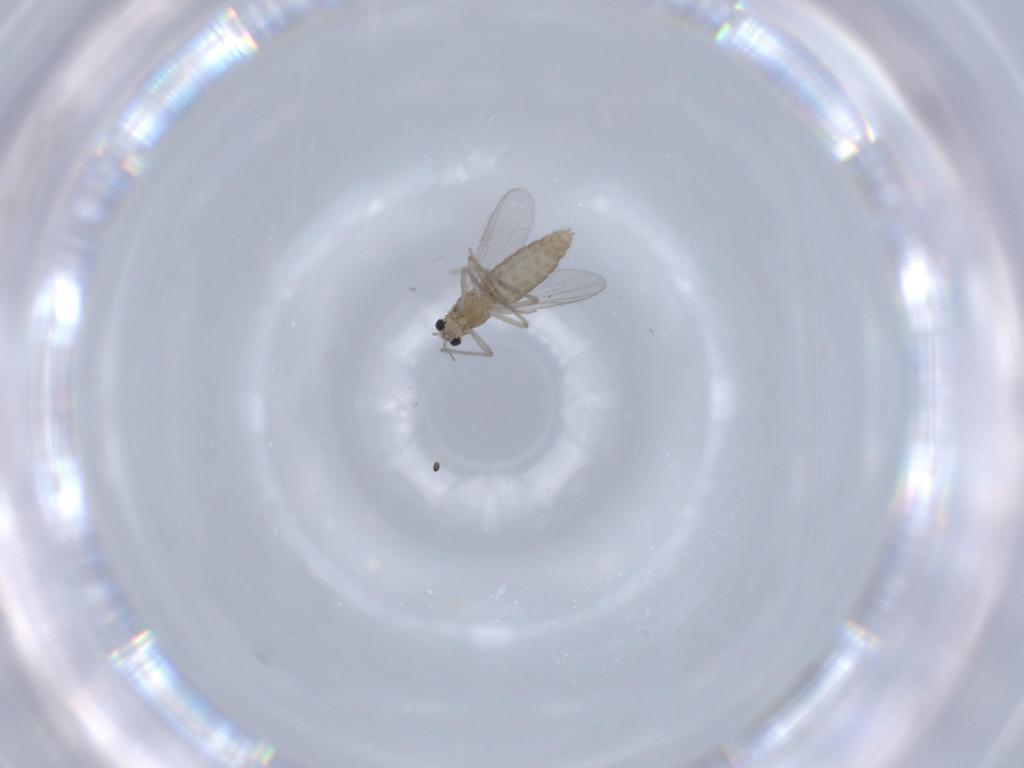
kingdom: Animalia
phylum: Arthropoda
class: Insecta
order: Diptera
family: Chironomidae
